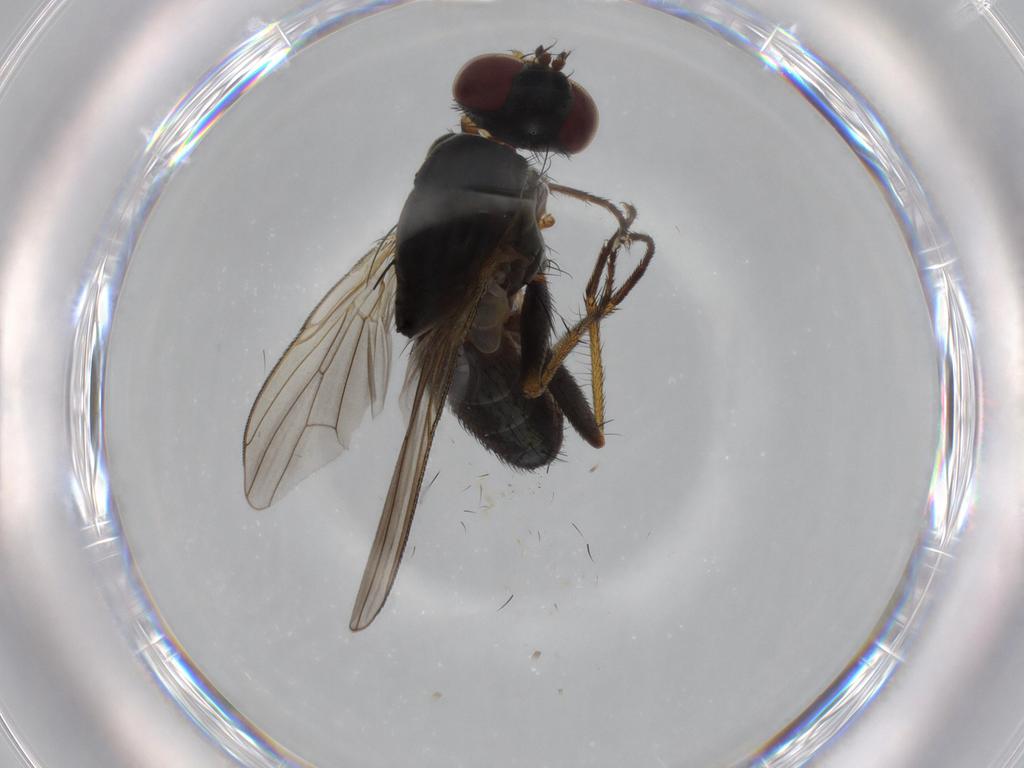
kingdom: Animalia
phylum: Arthropoda
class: Insecta
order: Diptera
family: Muscidae
